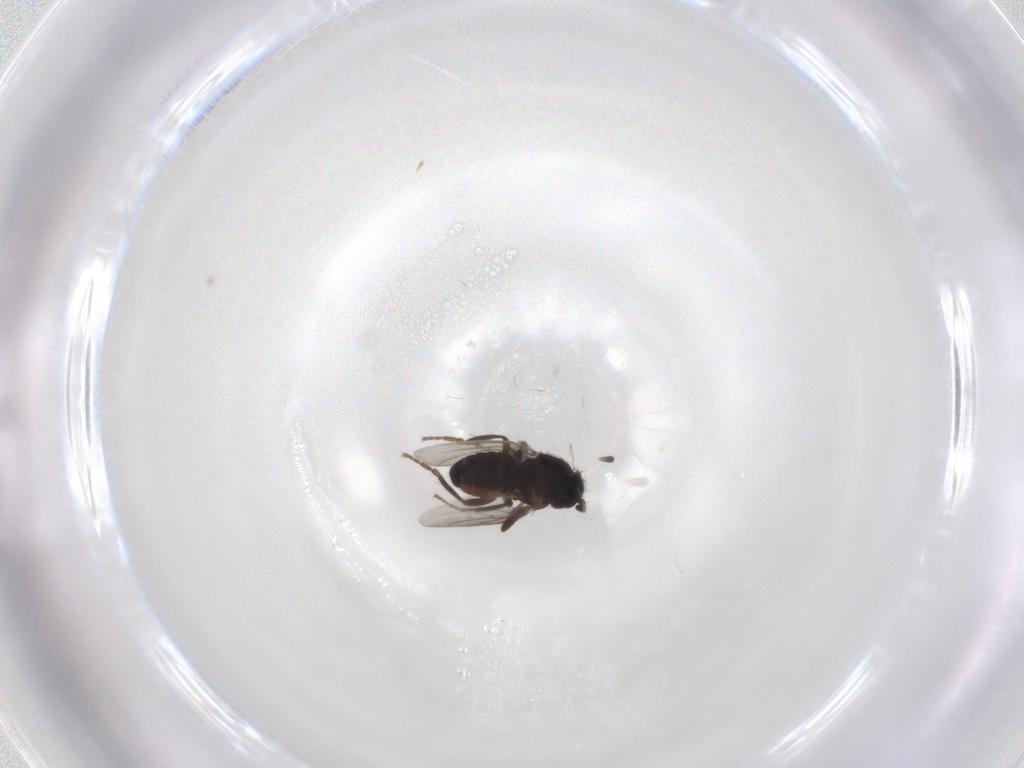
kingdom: Animalia
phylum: Arthropoda
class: Insecta
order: Diptera
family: Sphaeroceridae
